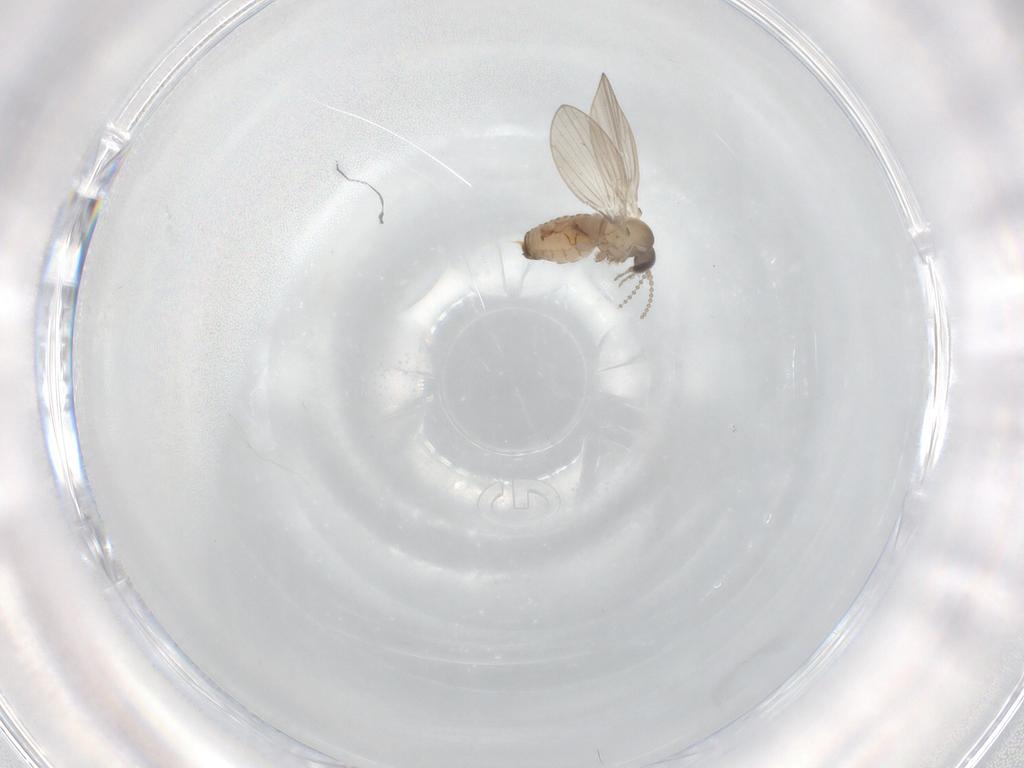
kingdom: Animalia
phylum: Arthropoda
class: Insecta
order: Diptera
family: Psychodidae
